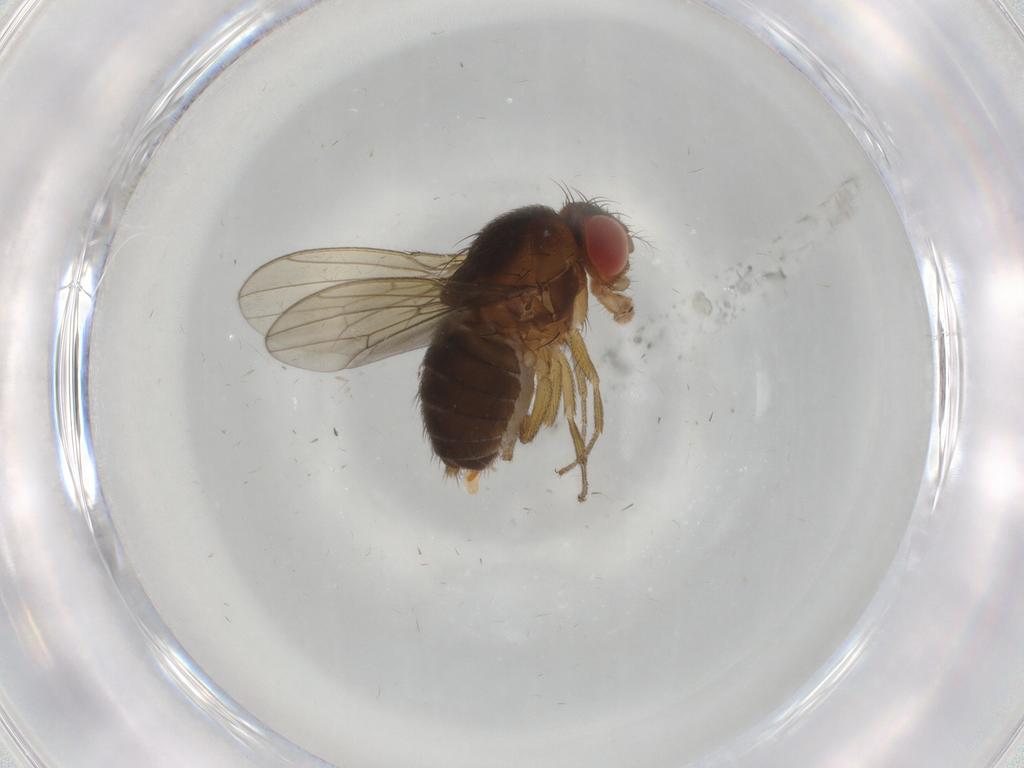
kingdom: Animalia
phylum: Arthropoda
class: Insecta
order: Diptera
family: Drosophilidae
